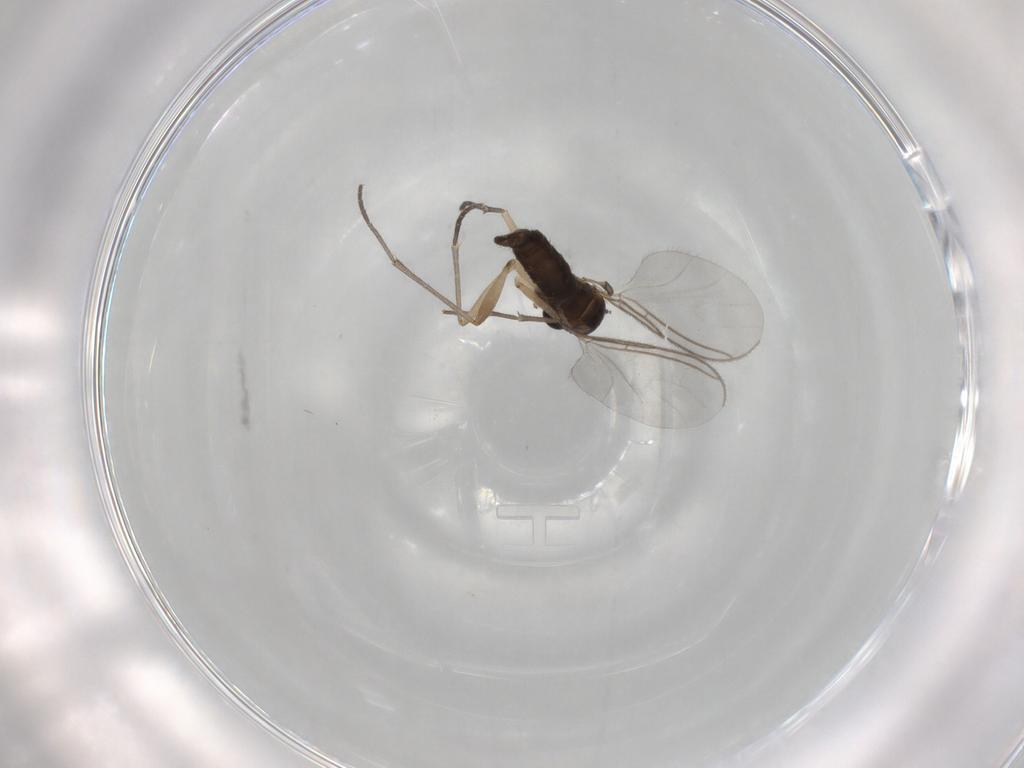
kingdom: Animalia
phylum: Arthropoda
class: Insecta
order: Diptera
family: Sciaridae
